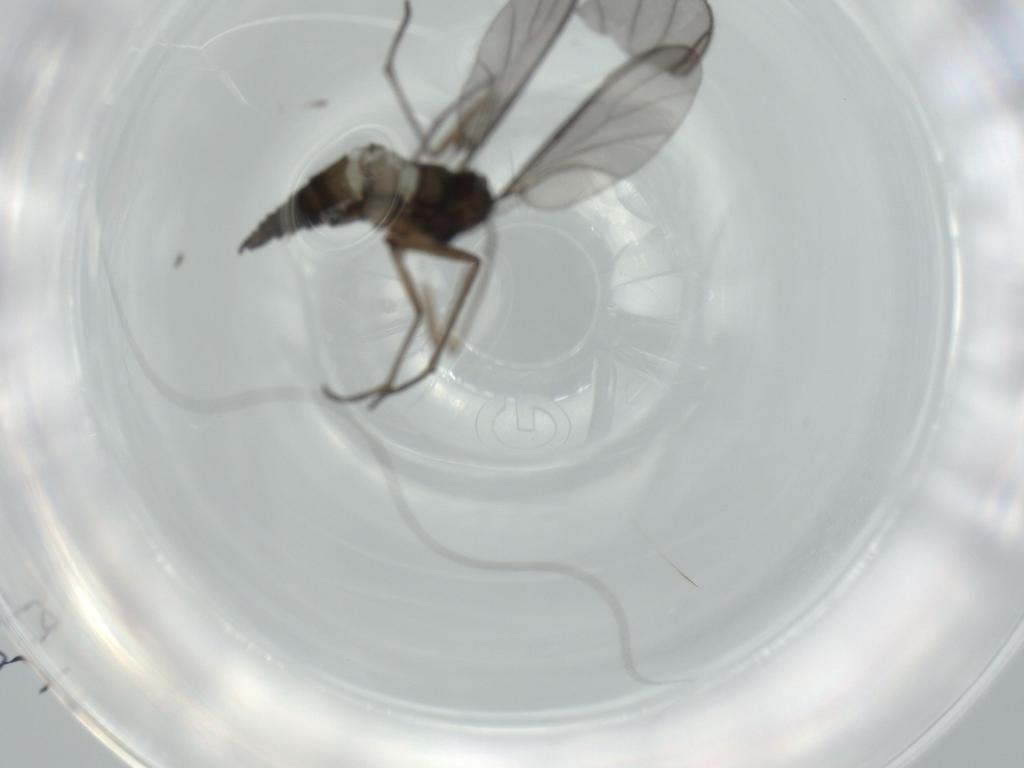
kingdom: Animalia
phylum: Arthropoda
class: Insecta
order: Diptera
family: Sciaridae
